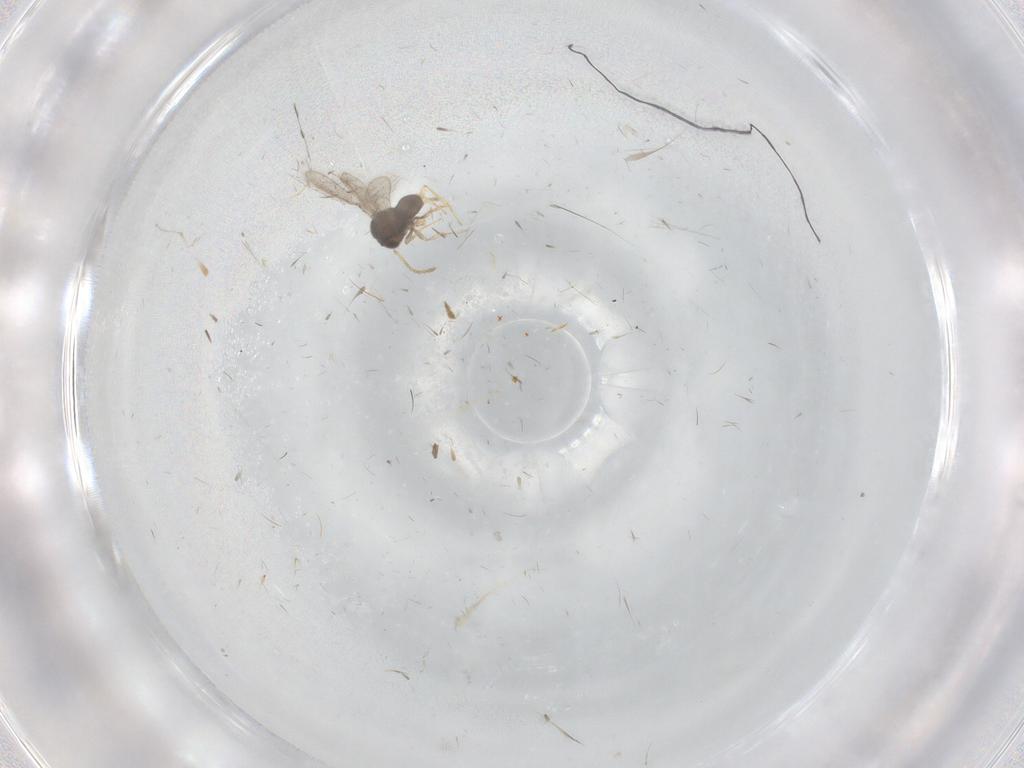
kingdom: Animalia
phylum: Arthropoda
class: Insecta
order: Hymenoptera
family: Scelionidae
